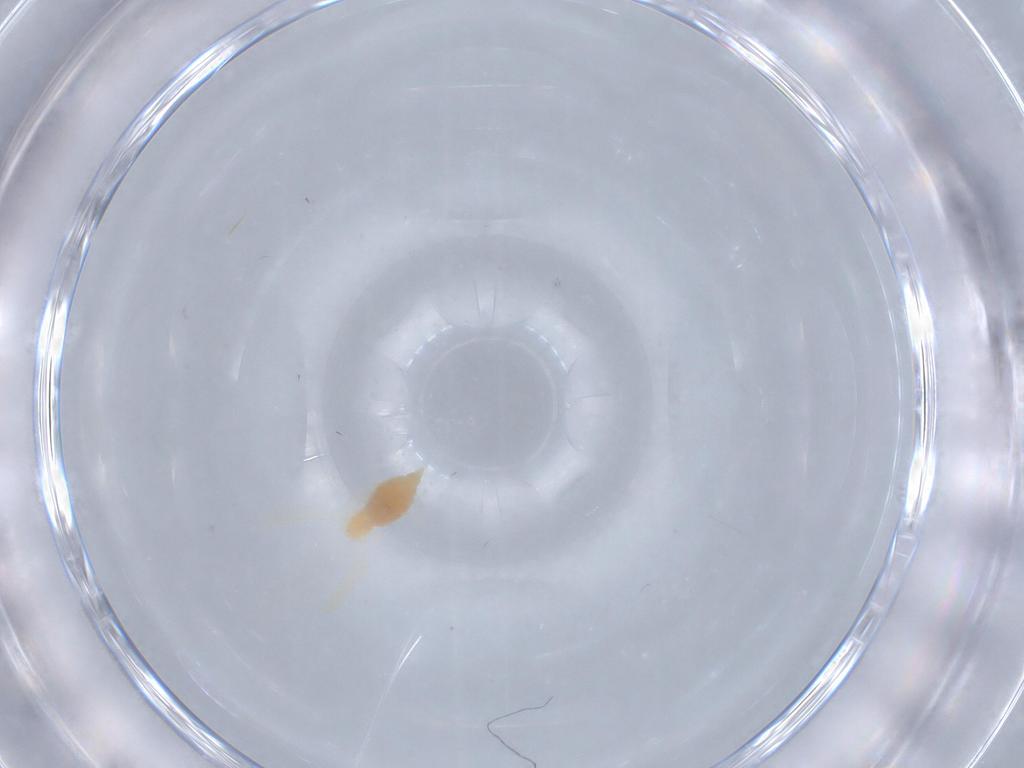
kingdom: Animalia
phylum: Arthropoda
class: Insecta
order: Diptera
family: Cecidomyiidae
